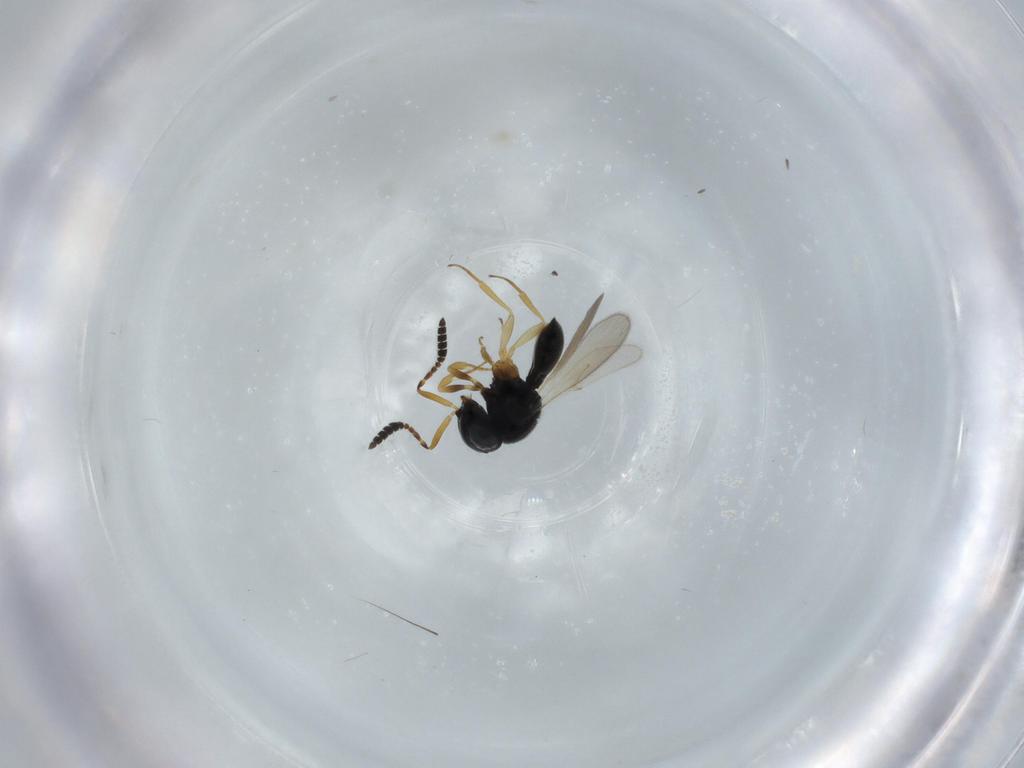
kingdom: Animalia
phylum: Arthropoda
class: Insecta
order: Hymenoptera
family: Scelionidae
